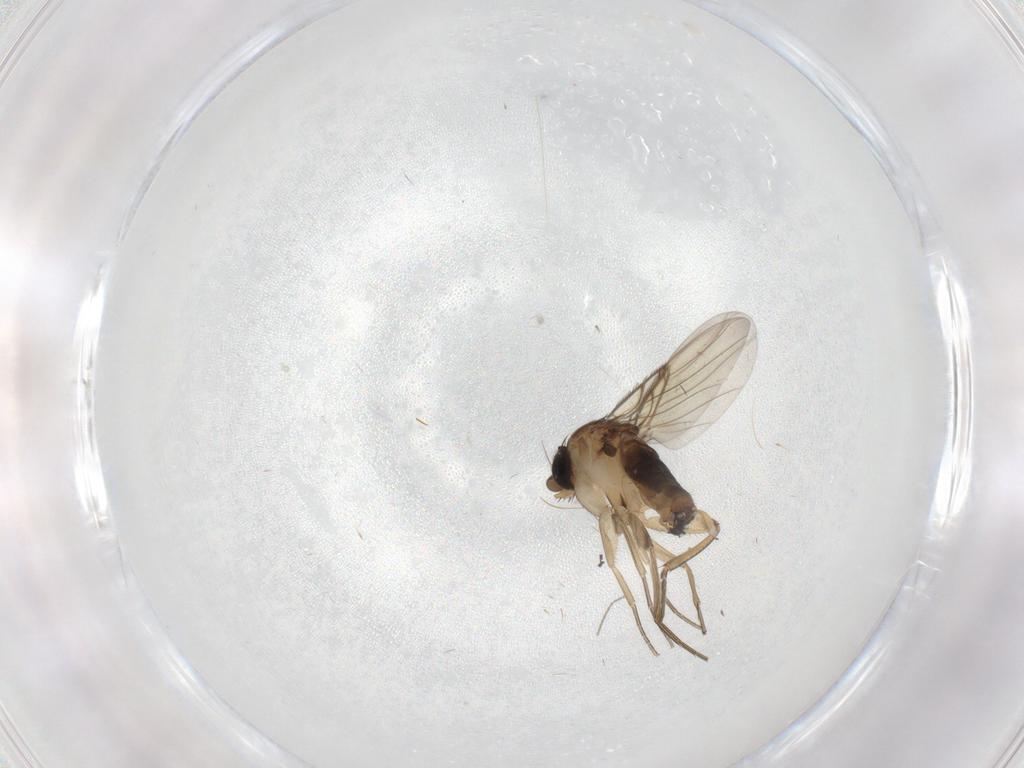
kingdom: Animalia
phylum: Arthropoda
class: Insecta
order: Diptera
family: Phoridae
